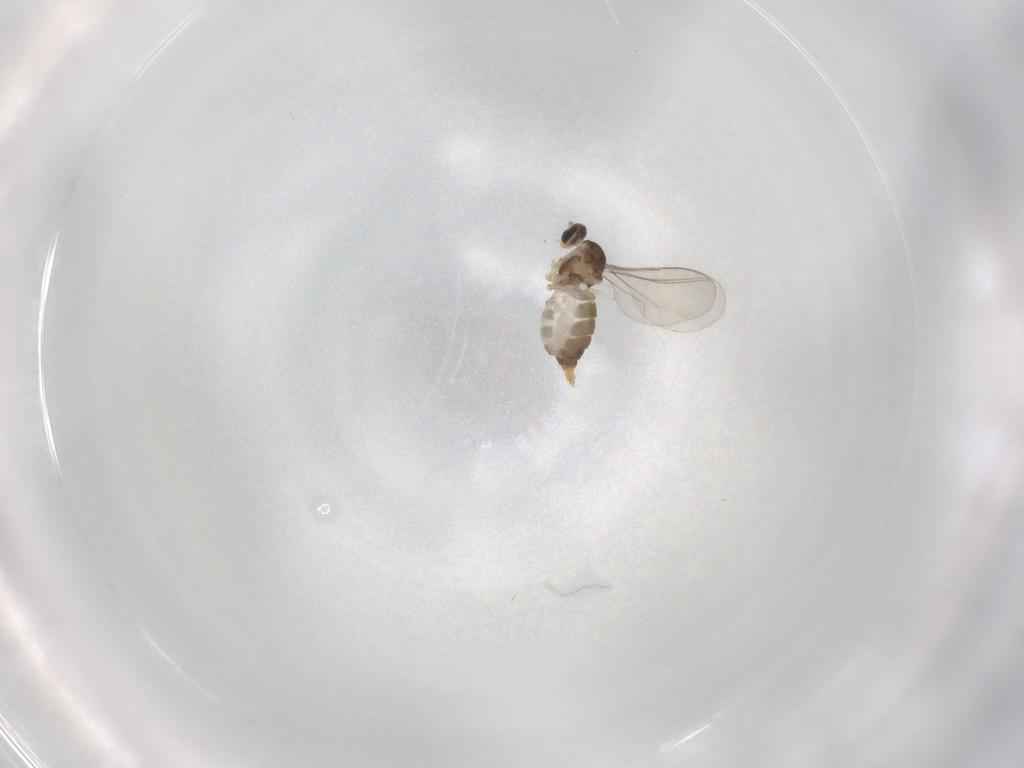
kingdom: Animalia
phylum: Arthropoda
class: Insecta
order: Diptera
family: Cecidomyiidae
